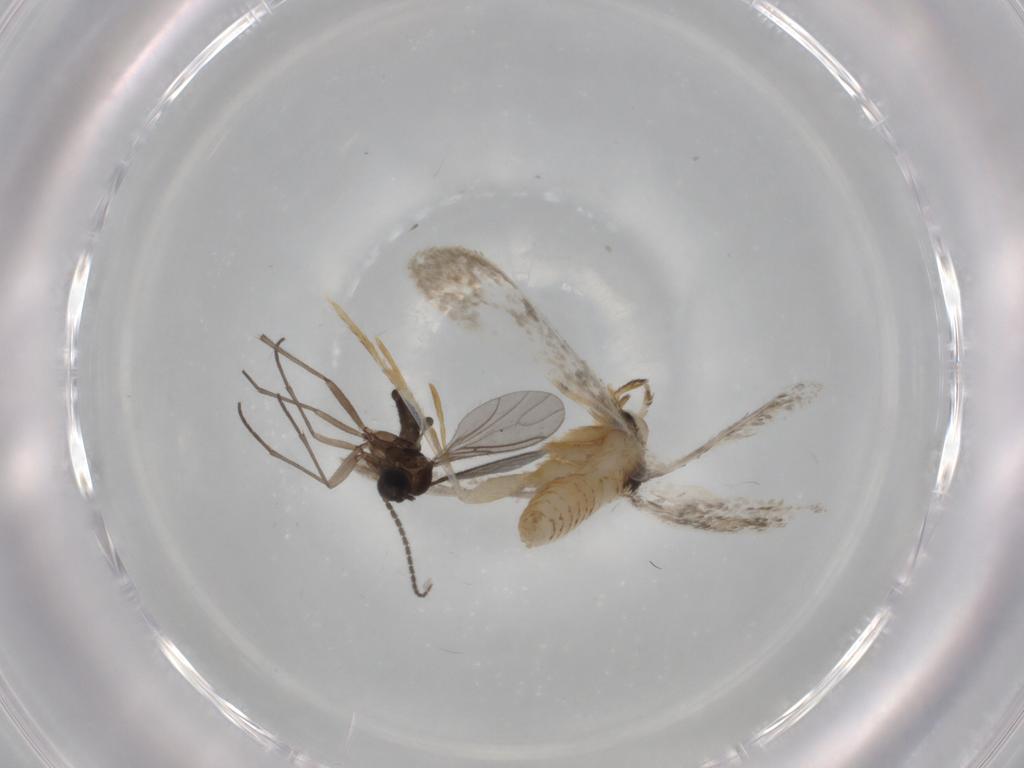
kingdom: Animalia
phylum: Arthropoda
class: Insecta
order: Diptera
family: Sciaridae
